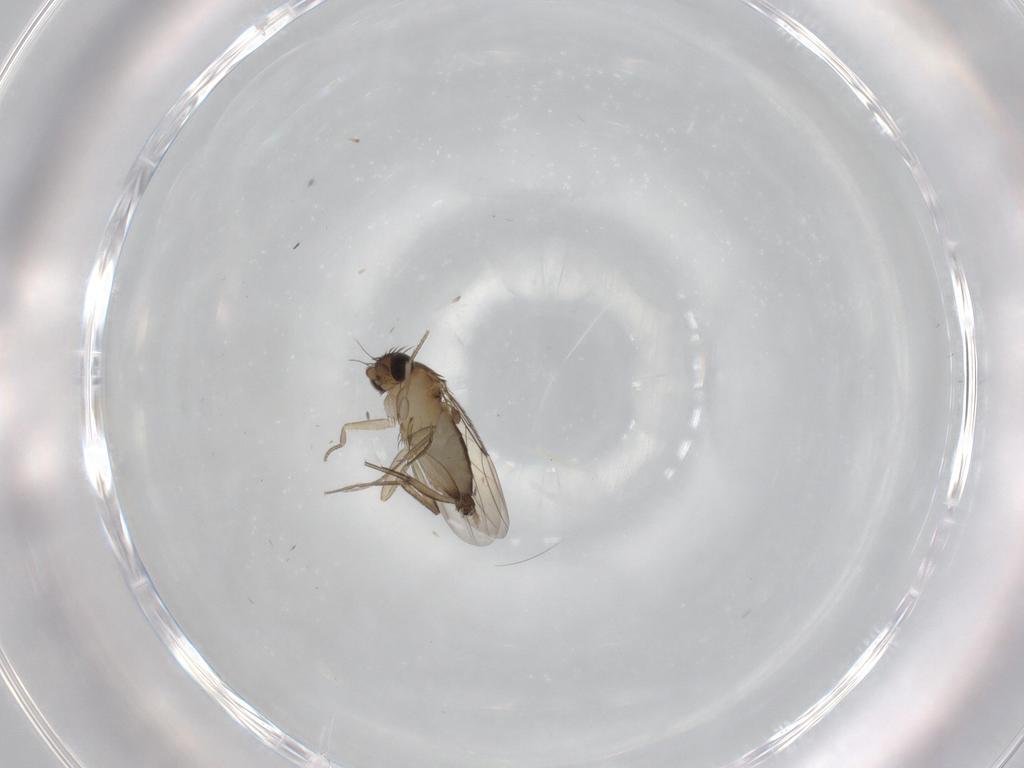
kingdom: Animalia
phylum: Arthropoda
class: Insecta
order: Diptera
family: Phoridae
